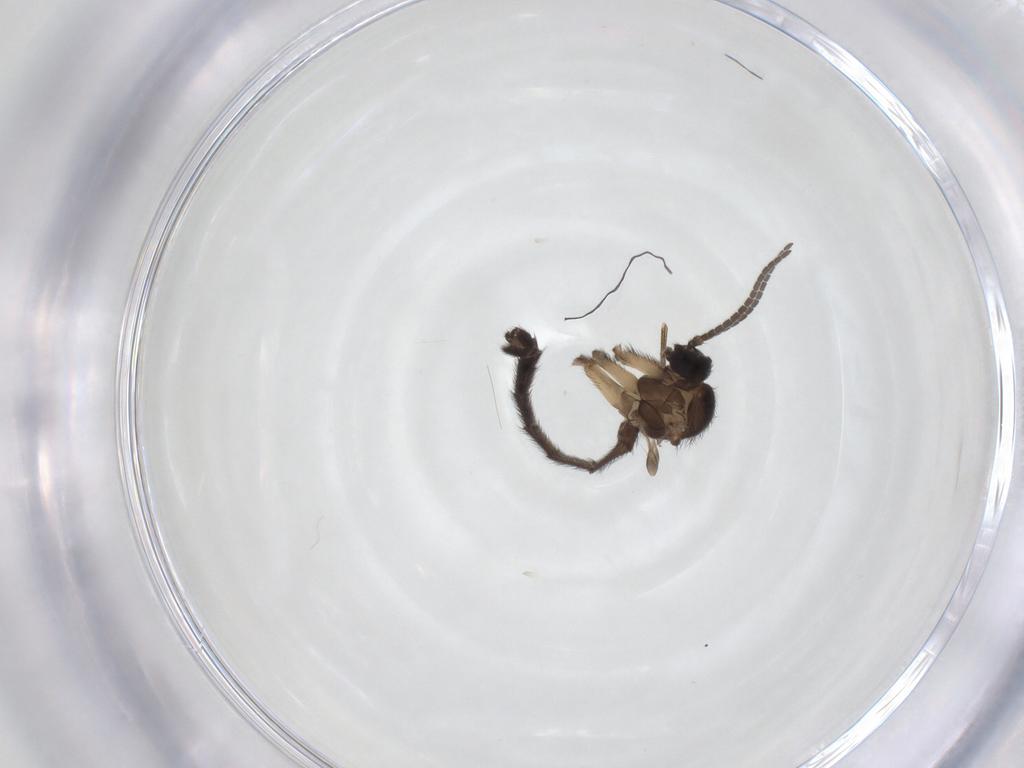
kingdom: Animalia
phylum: Arthropoda
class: Insecta
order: Diptera
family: Keroplatidae
